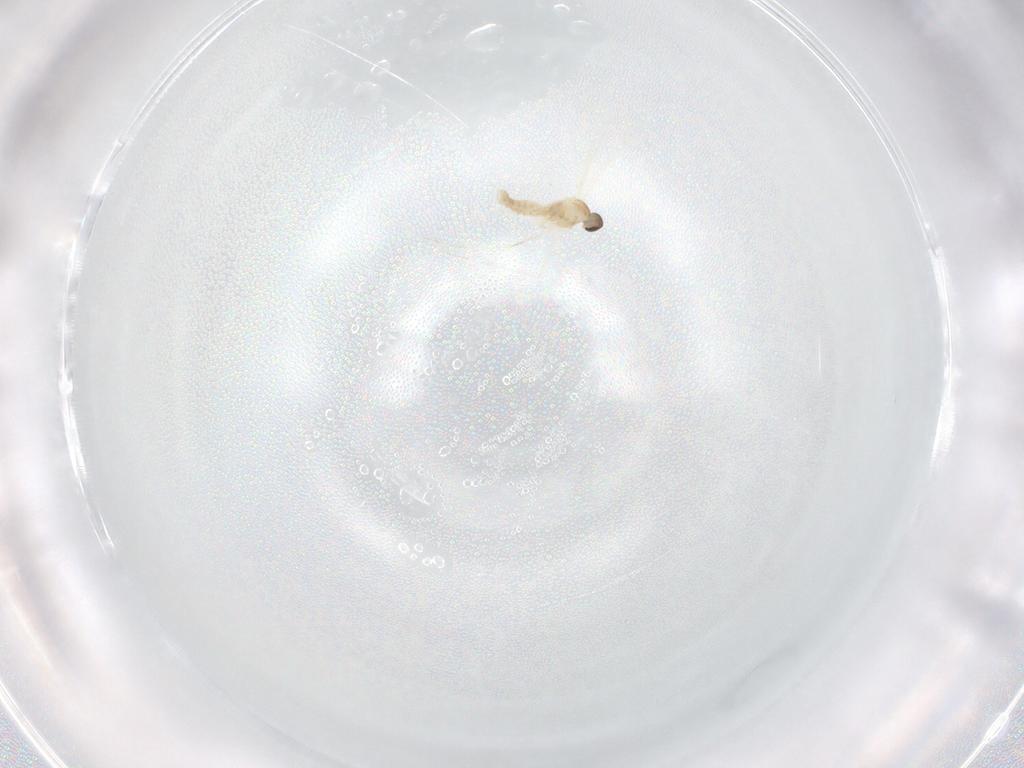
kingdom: Animalia
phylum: Arthropoda
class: Insecta
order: Diptera
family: Cecidomyiidae
